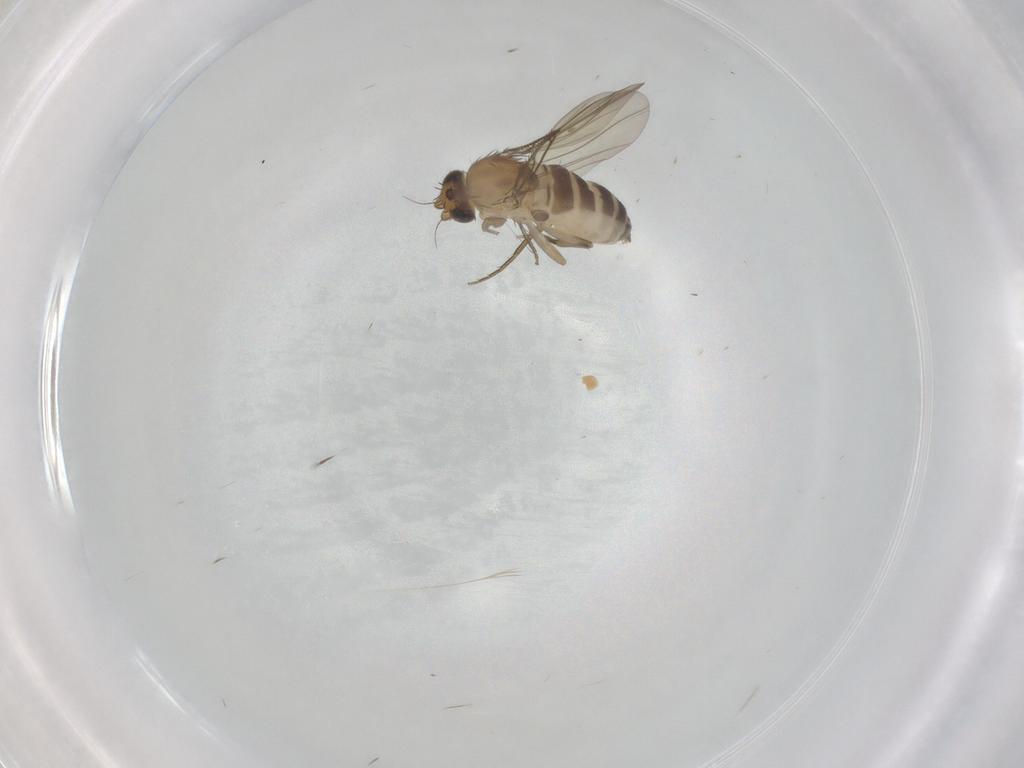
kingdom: Animalia
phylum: Arthropoda
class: Insecta
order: Diptera
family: Phoridae
